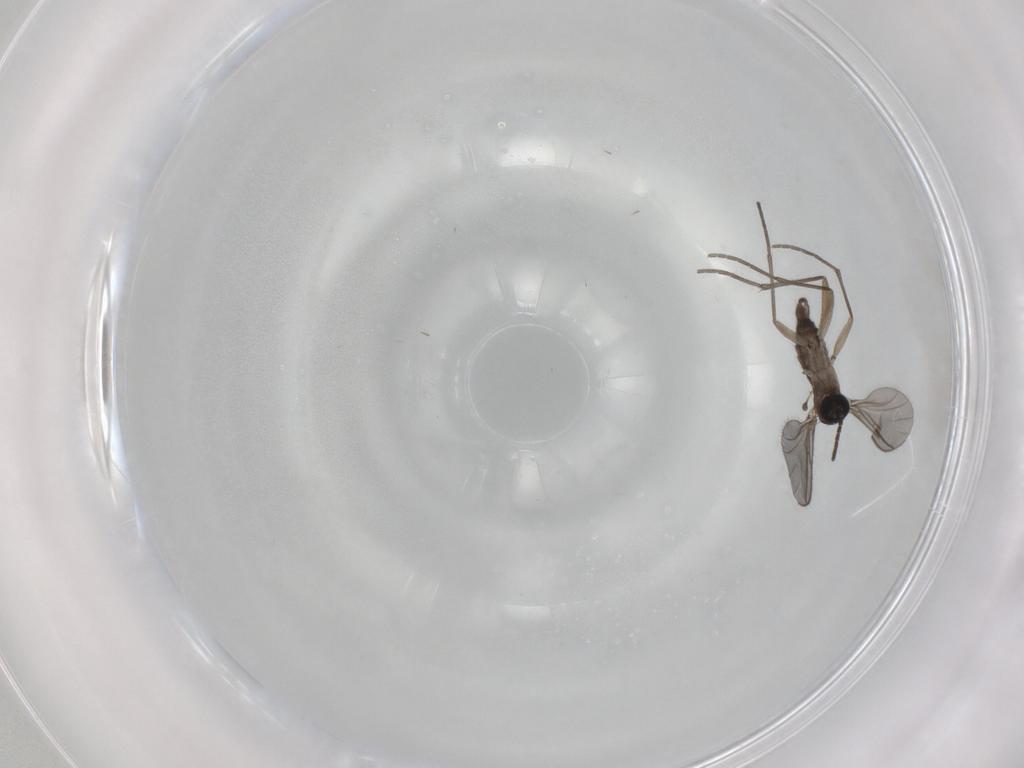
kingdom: Animalia
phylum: Arthropoda
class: Insecta
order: Diptera
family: Sciaridae
